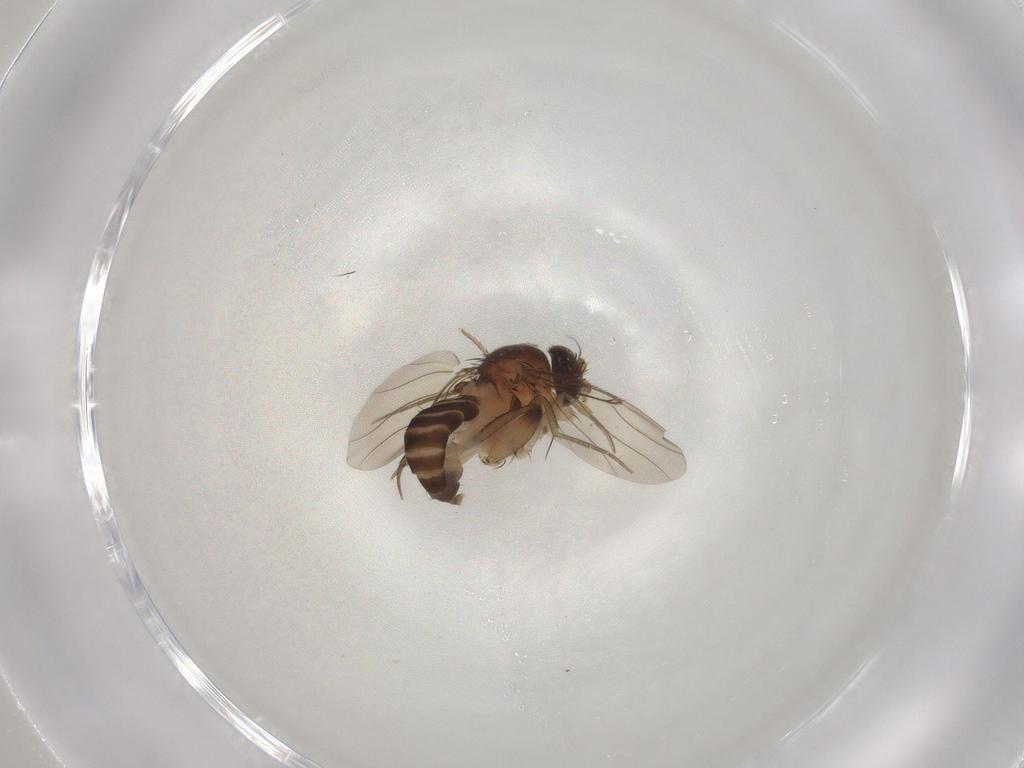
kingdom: Animalia
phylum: Arthropoda
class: Insecta
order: Diptera
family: Phoridae
